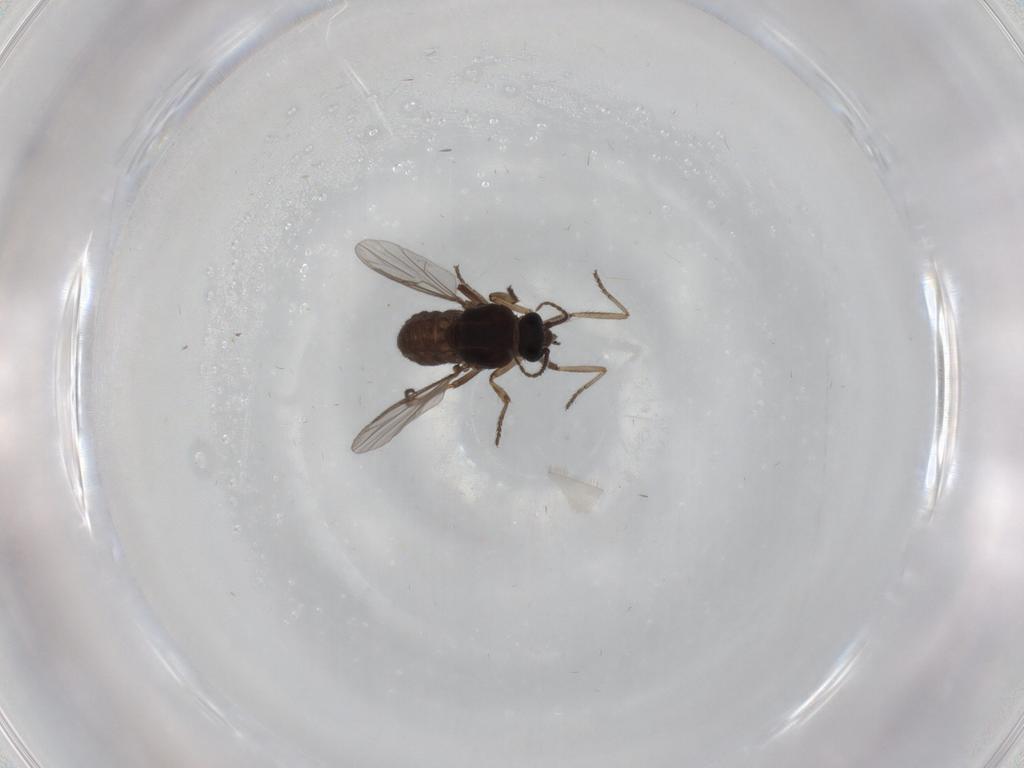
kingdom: Animalia
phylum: Arthropoda
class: Insecta
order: Diptera
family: Ceratopogonidae
